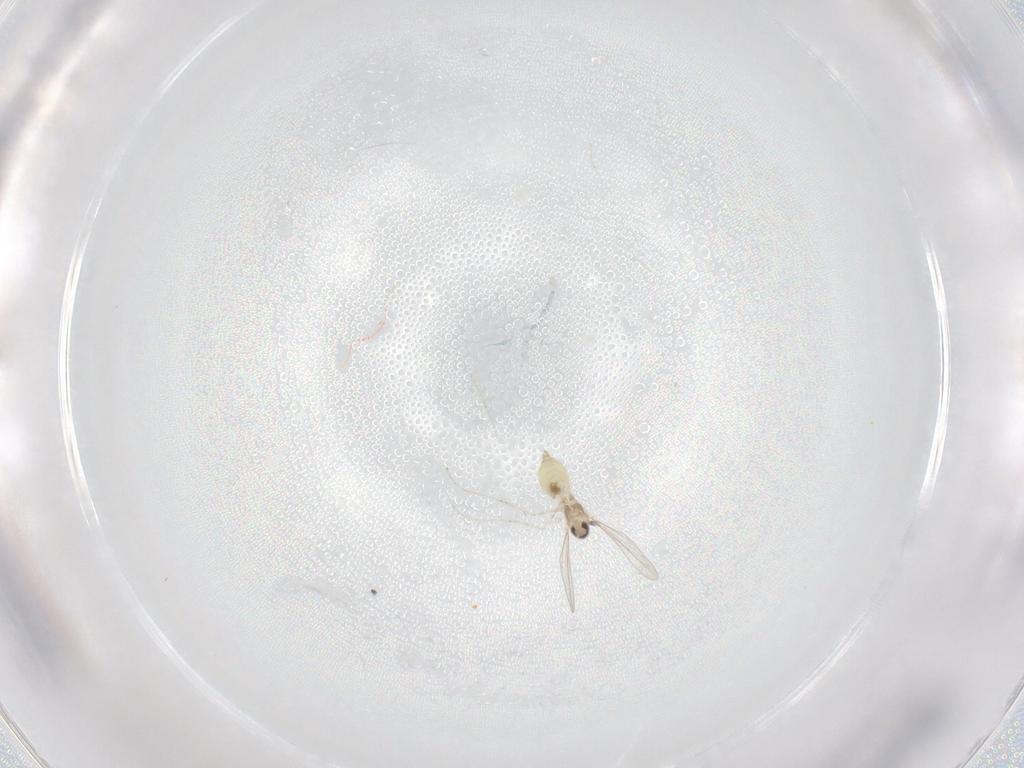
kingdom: Animalia
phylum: Arthropoda
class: Insecta
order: Diptera
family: Cecidomyiidae
